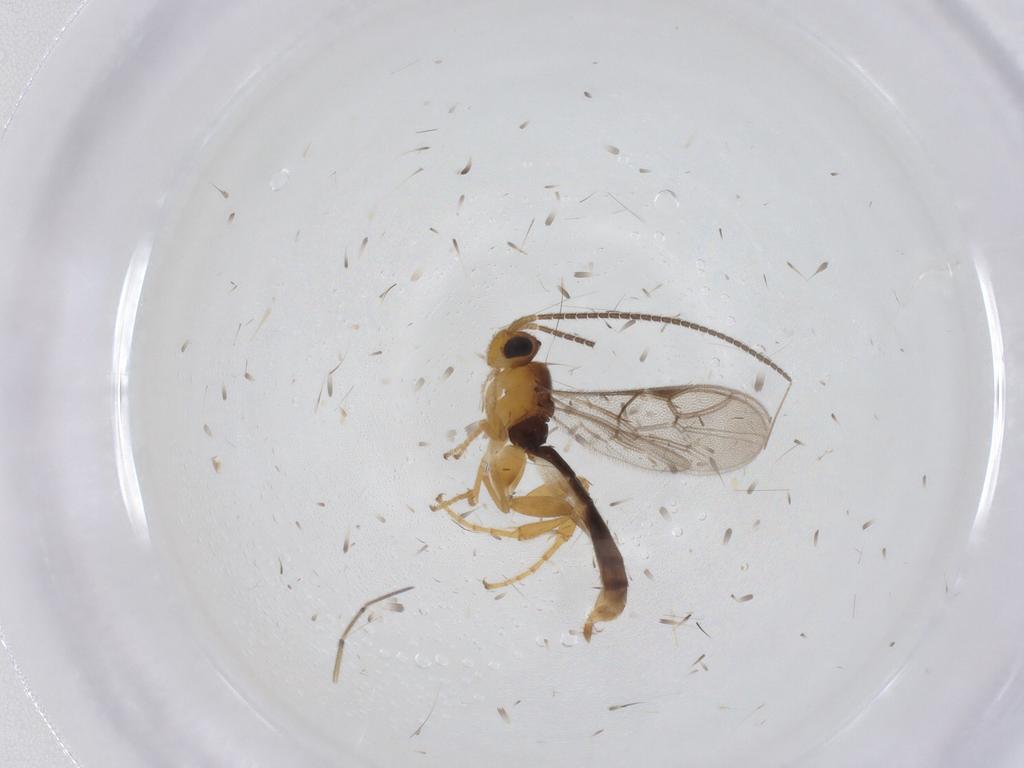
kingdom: Animalia
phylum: Arthropoda
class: Insecta
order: Hymenoptera
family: Ichneumonidae
